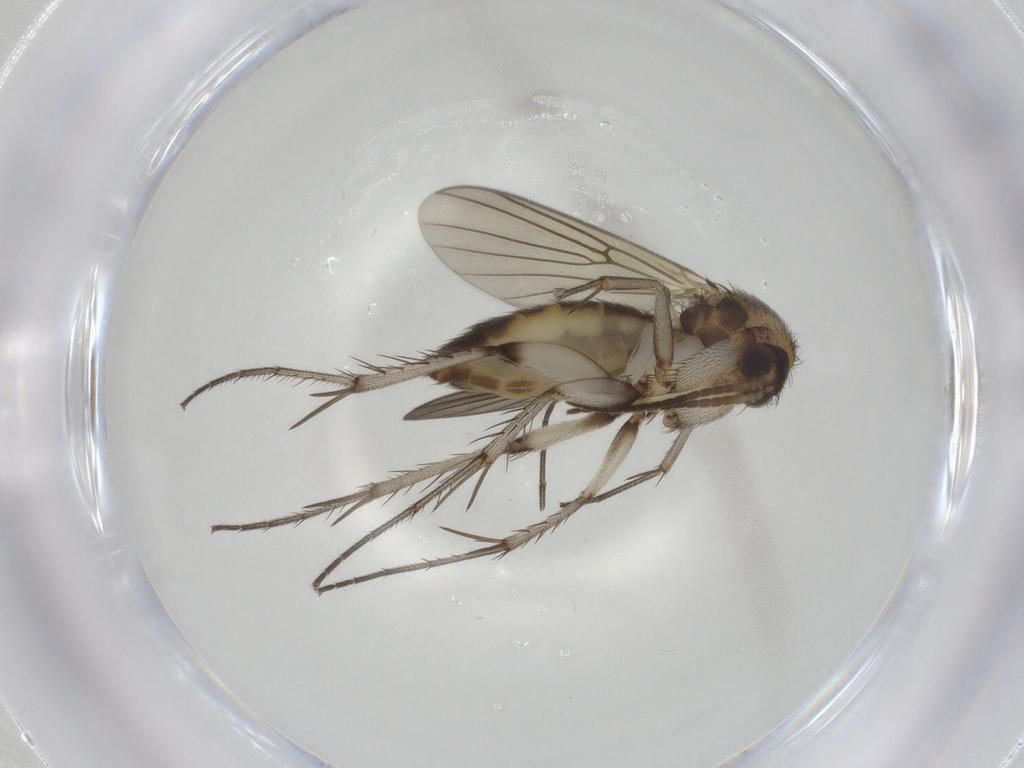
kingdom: Animalia
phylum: Arthropoda
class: Insecta
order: Diptera
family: Mycetophilidae
